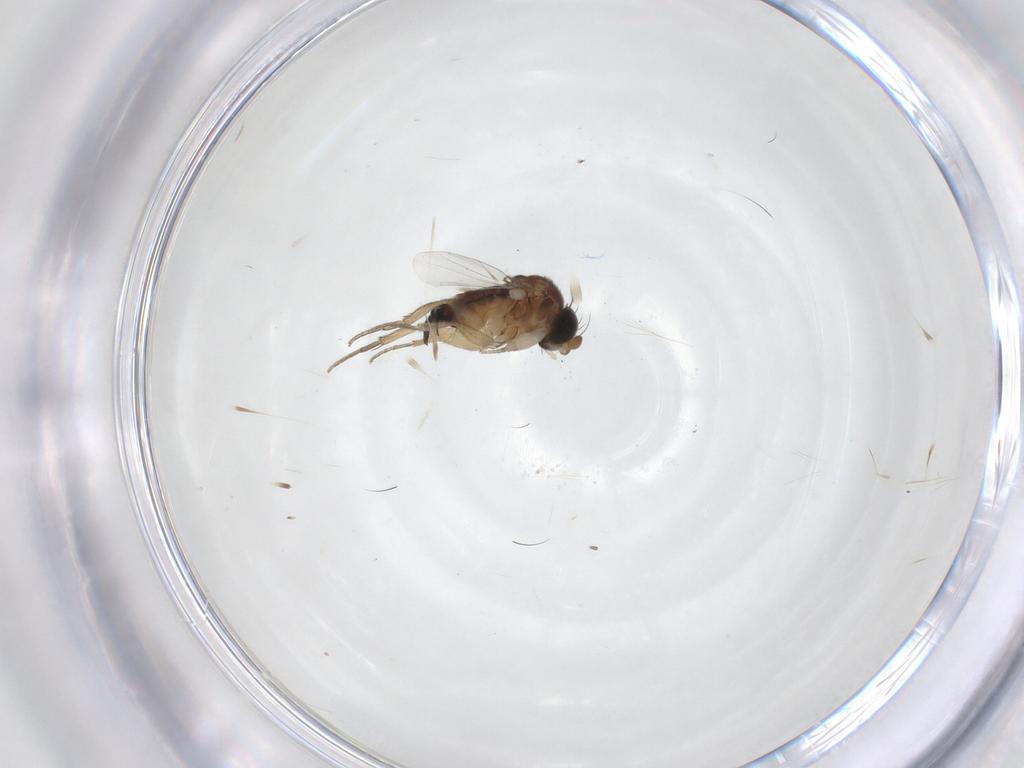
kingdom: Animalia
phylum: Arthropoda
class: Insecta
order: Diptera
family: Phoridae
